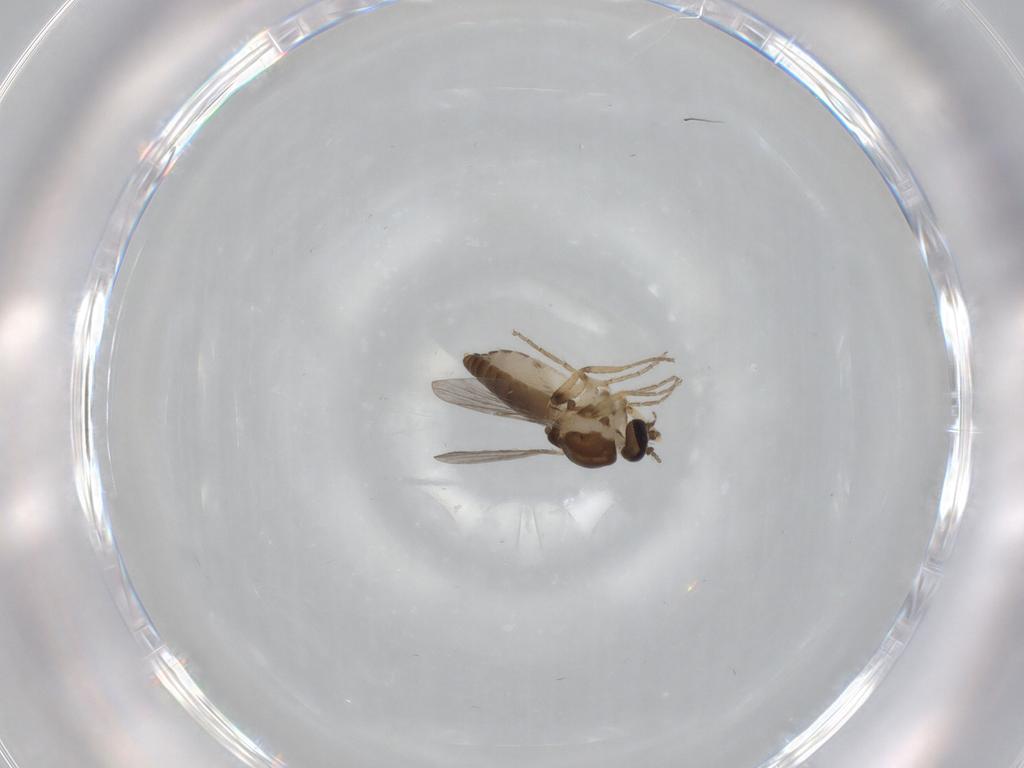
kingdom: Animalia
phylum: Arthropoda
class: Insecta
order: Diptera
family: Ceratopogonidae
